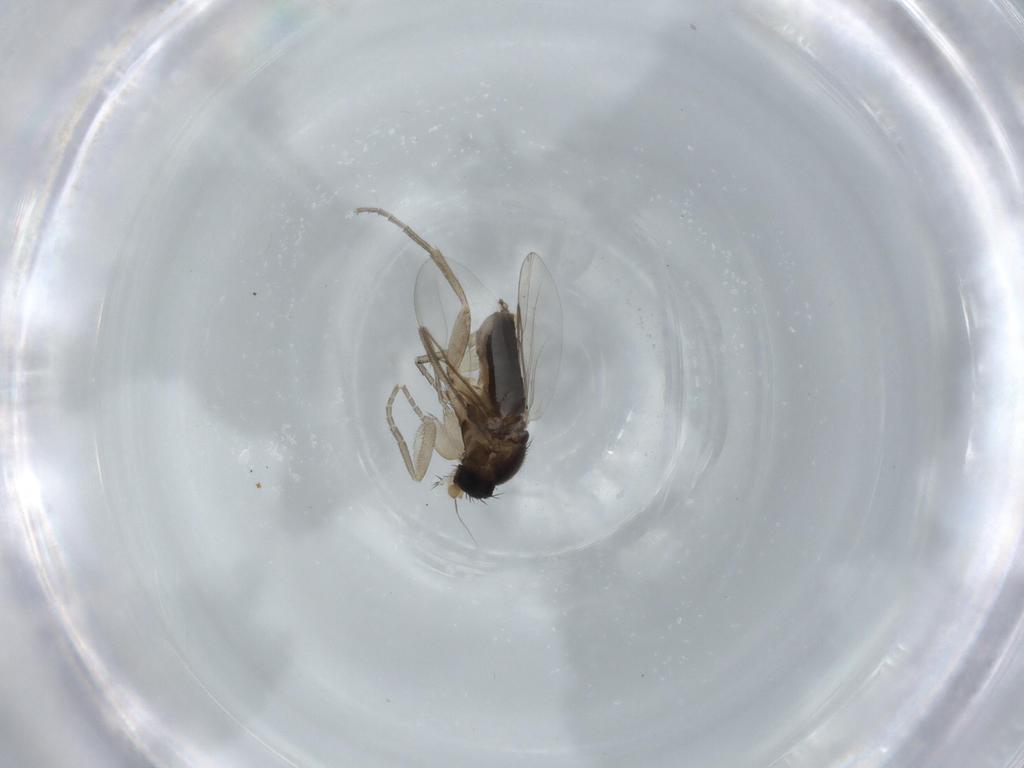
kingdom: Animalia
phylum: Arthropoda
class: Insecta
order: Diptera
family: Phoridae
